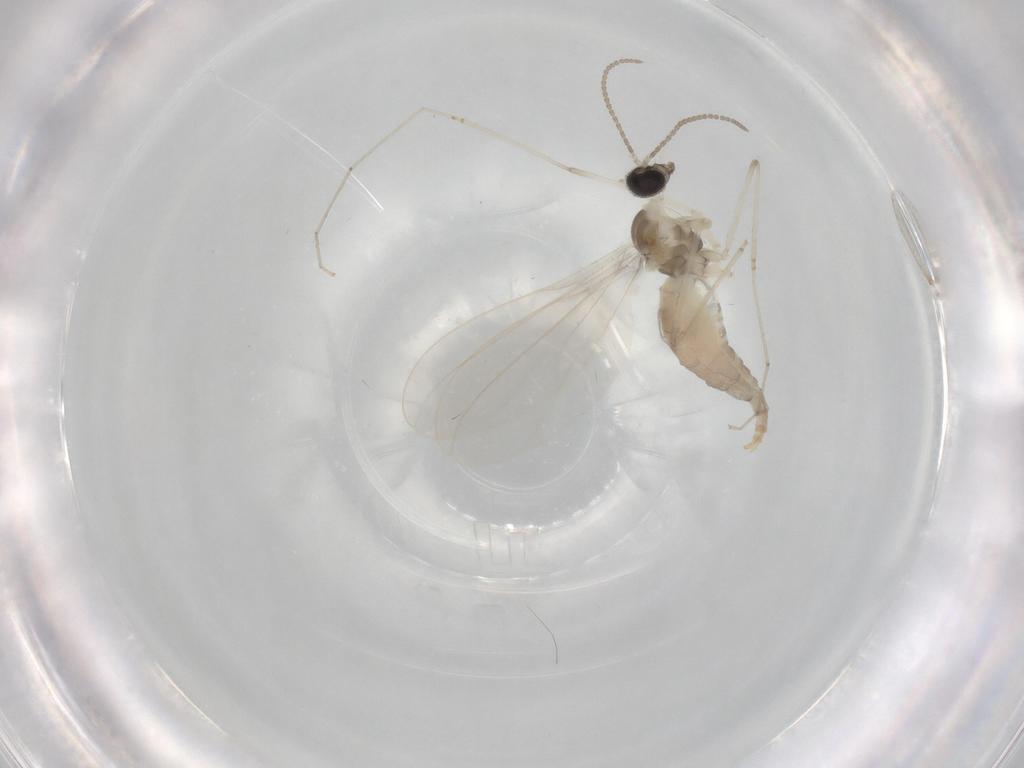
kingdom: Animalia
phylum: Arthropoda
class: Insecta
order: Diptera
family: Cecidomyiidae
